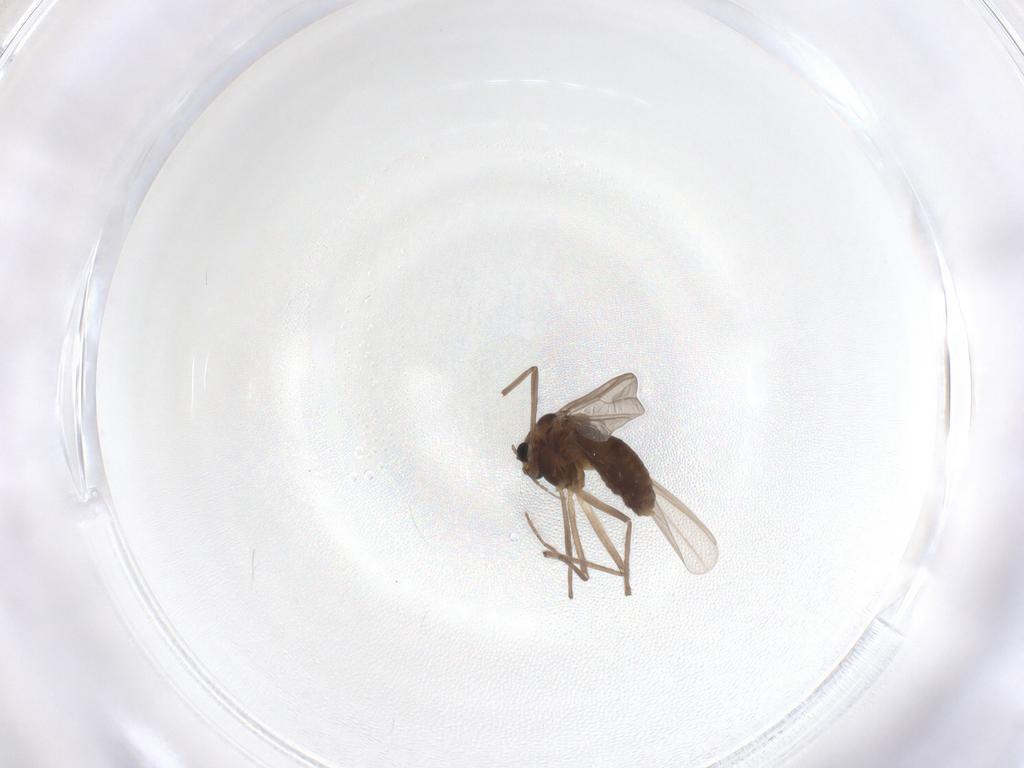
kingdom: Animalia
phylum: Arthropoda
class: Insecta
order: Diptera
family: Chironomidae
